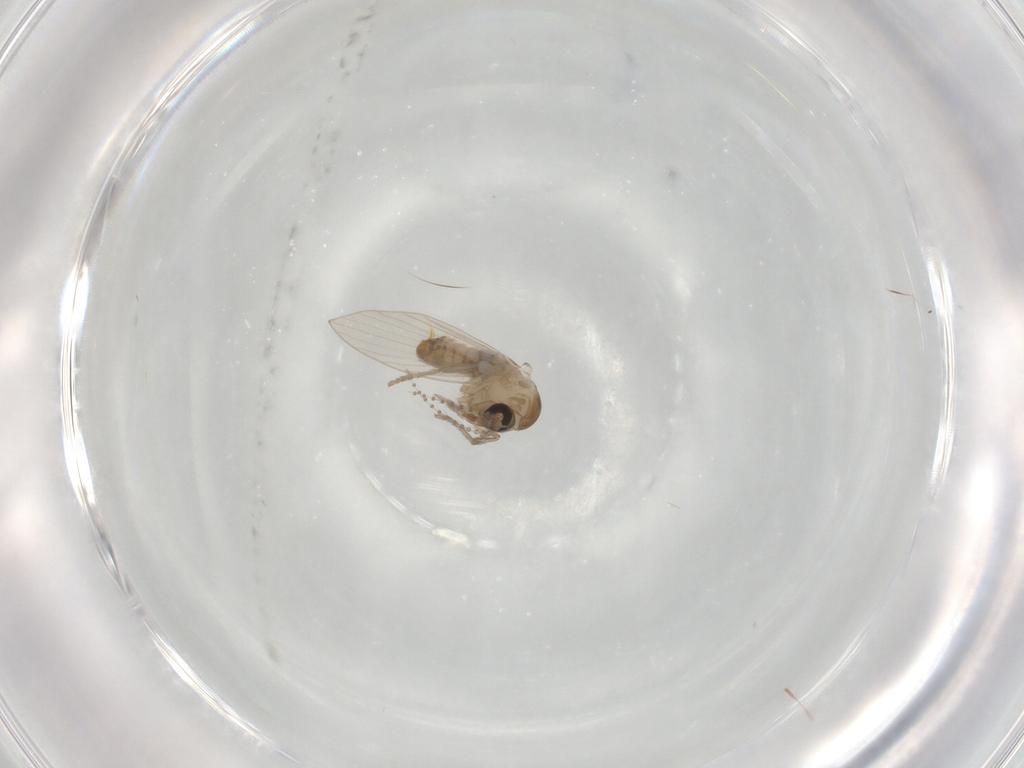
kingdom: Animalia
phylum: Arthropoda
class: Insecta
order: Diptera
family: Psychodidae
